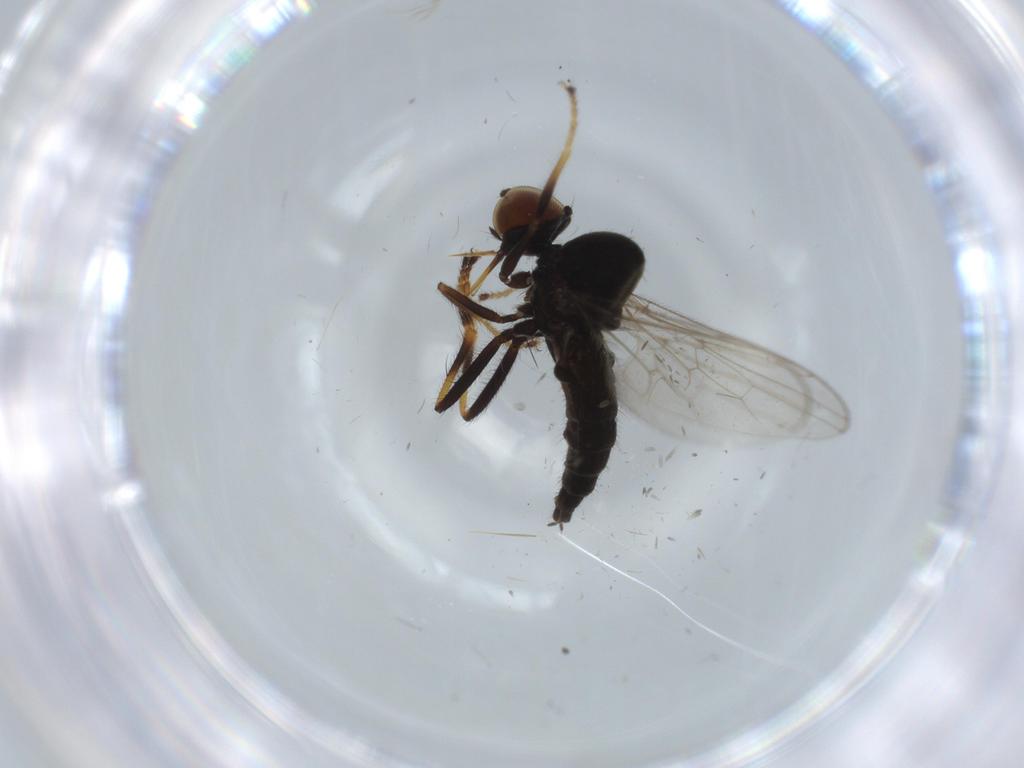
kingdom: Animalia
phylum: Arthropoda
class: Insecta
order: Diptera
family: Hybotidae
